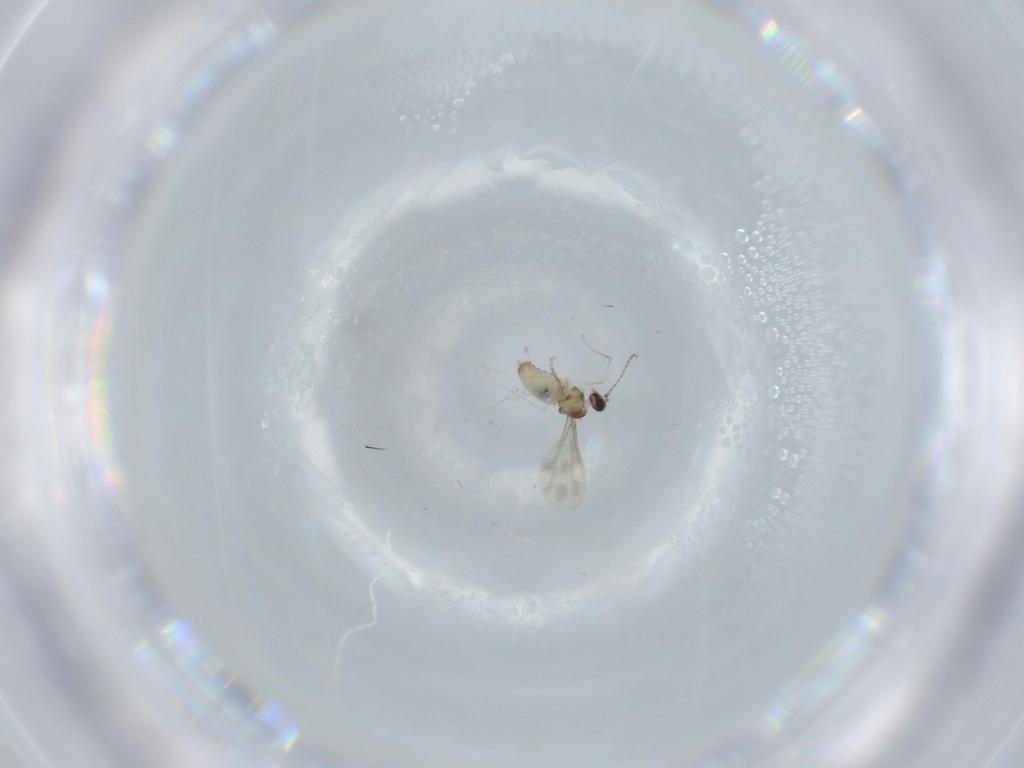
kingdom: Animalia
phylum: Arthropoda
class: Insecta
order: Diptera
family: Cecidomyiidae
